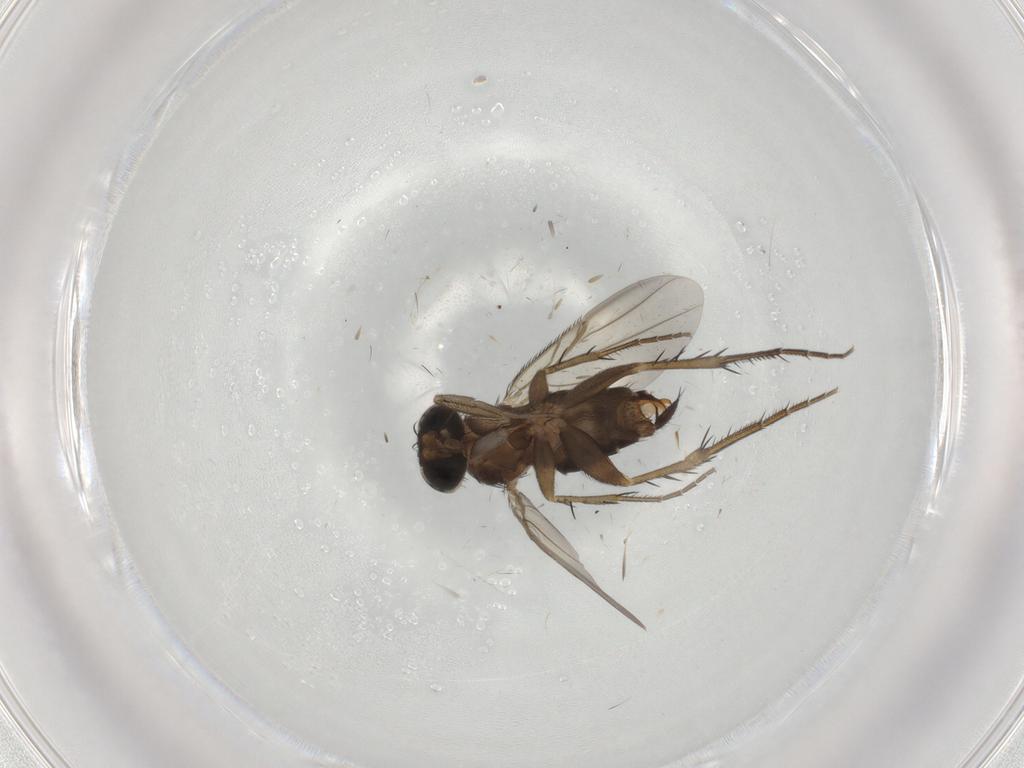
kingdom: Animalia
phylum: Arthropoda
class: Insecta
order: Diptera
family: Phoridae
